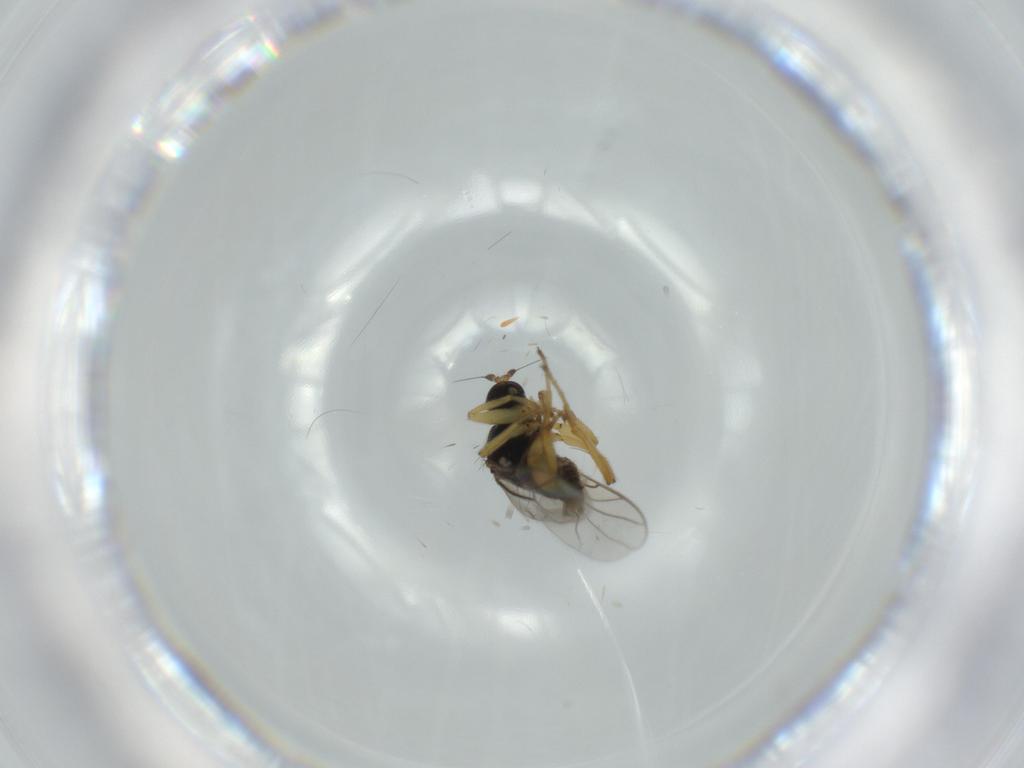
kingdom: Animalia
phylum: Arthropoda
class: Insecta
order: Diptera
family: Hybotidae
